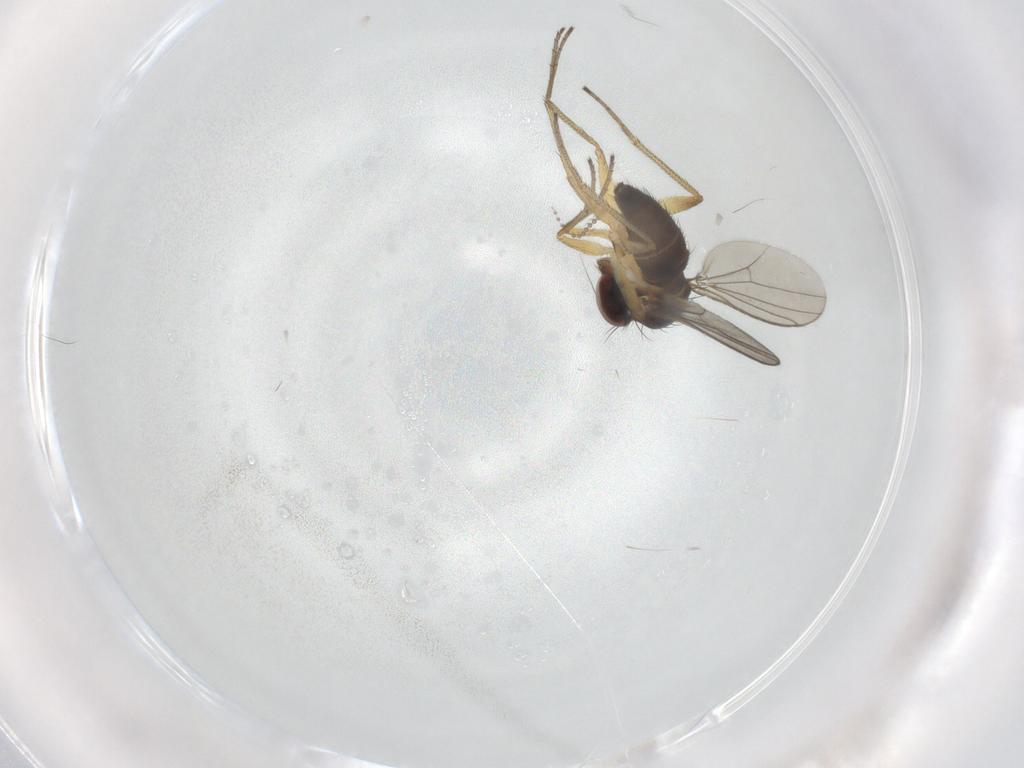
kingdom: Animalia
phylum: Arthropoda
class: Insecta
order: Diptera
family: Dolichopodidae
